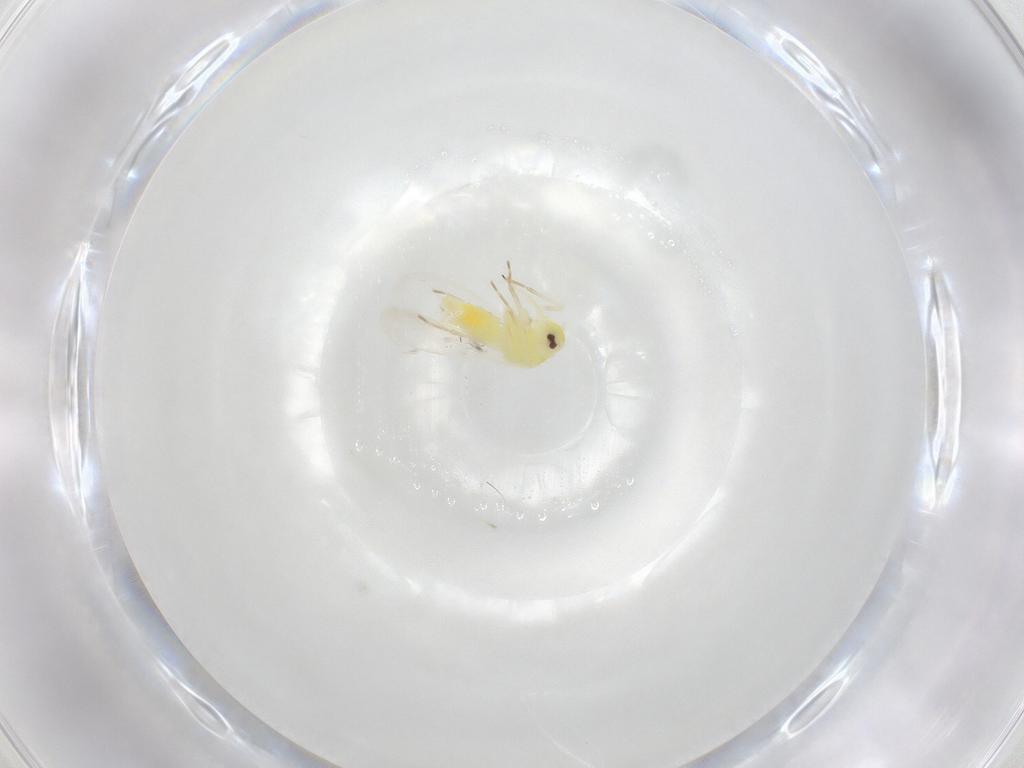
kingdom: Animalia
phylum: Arthropoda
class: Insecta
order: Hemiptera
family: Aleyrodidae
